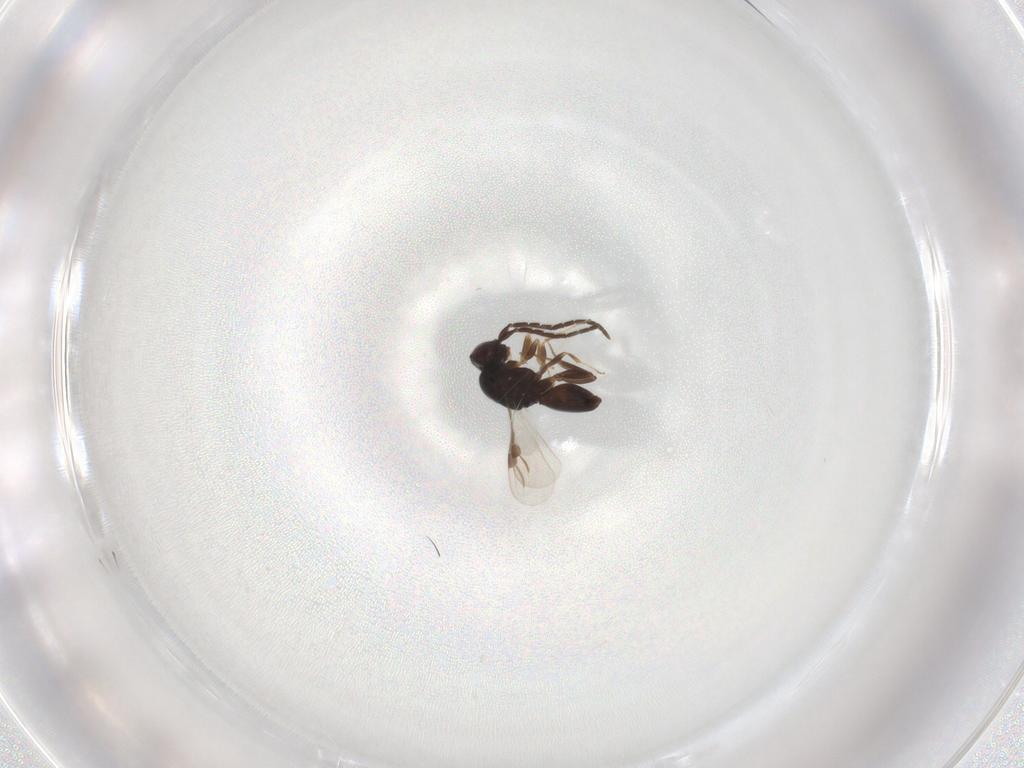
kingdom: Animalia
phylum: Arthropoda
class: Insecta
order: Hymenoptera
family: Megaspilidae
